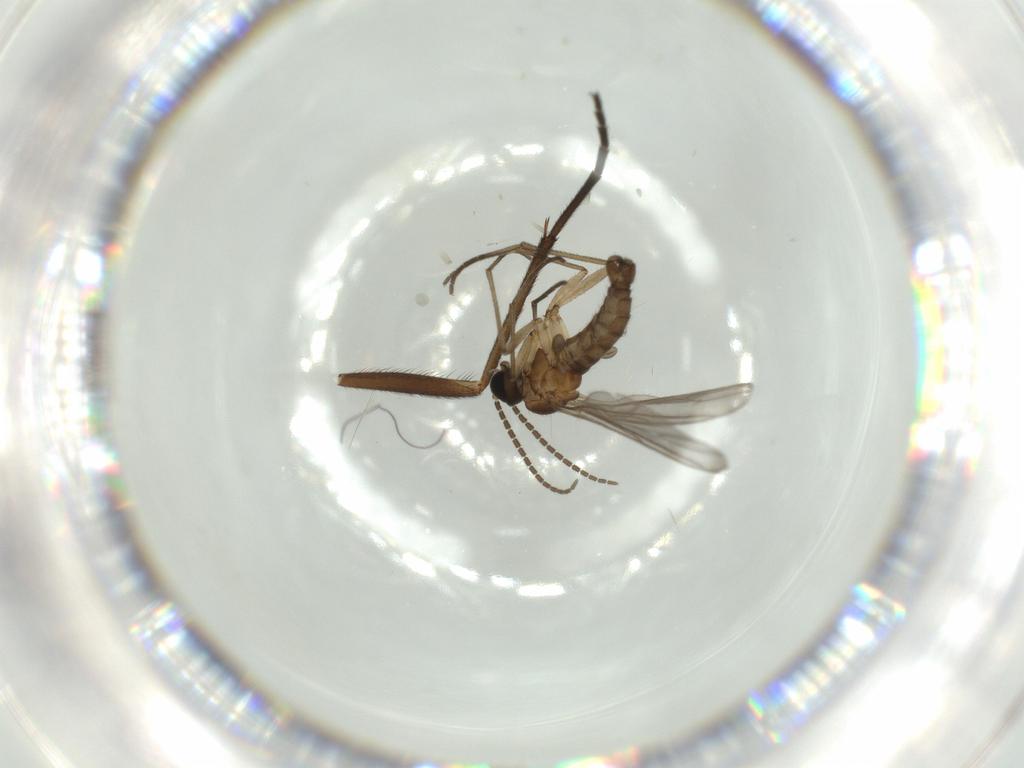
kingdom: Animalia
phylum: Arthropoda
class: Insecta
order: Diptera
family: Sciaridae
